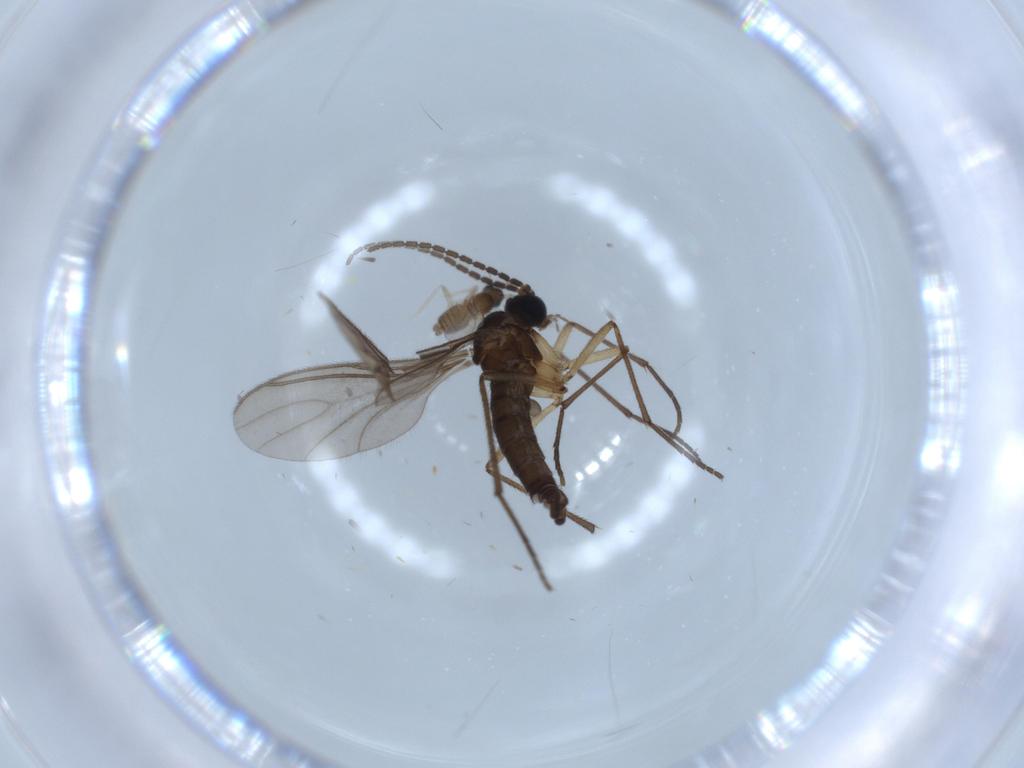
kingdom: Animalia
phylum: Arthropoda
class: Insecta
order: Diptera
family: Cecidomyiidae
